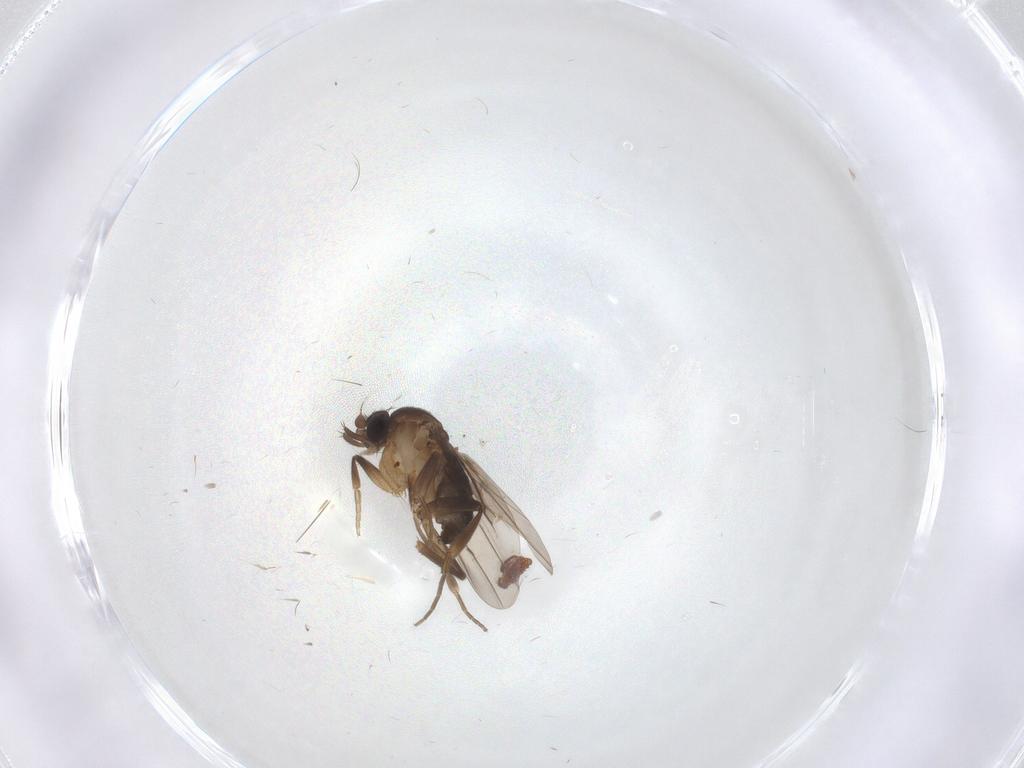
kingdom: Animalia
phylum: Arthropoda
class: Insecta
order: Diptera
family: Phoridae
